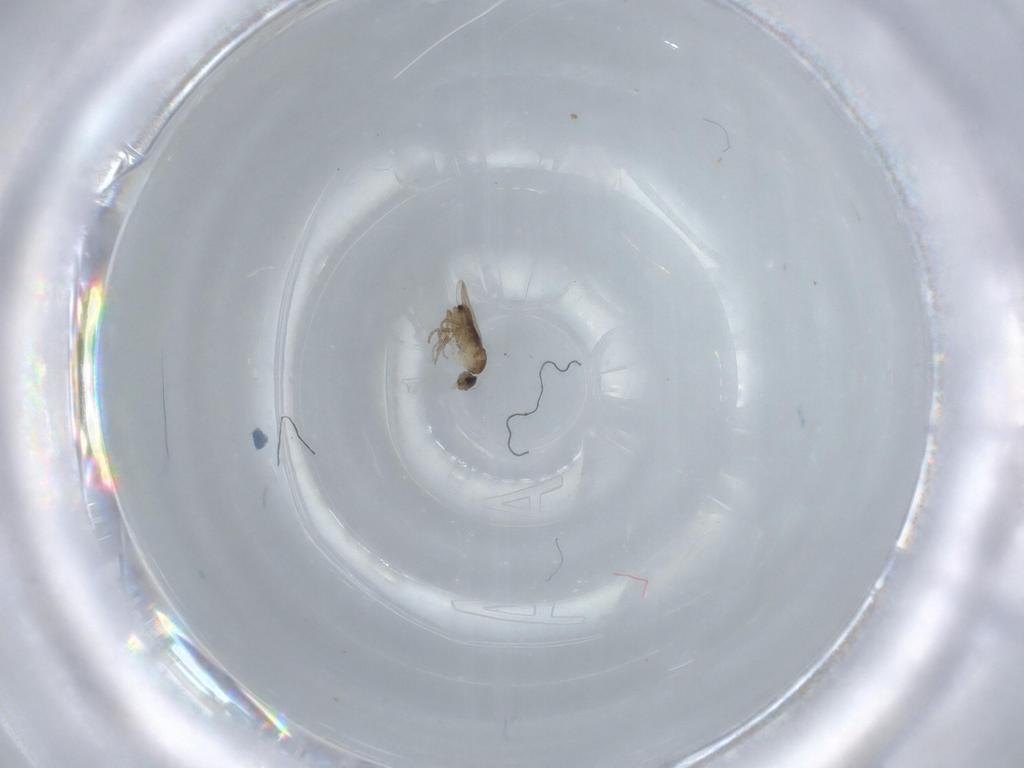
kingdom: Animalia
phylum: Arthropoda
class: Insecta
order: Diptera
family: Phoridae
